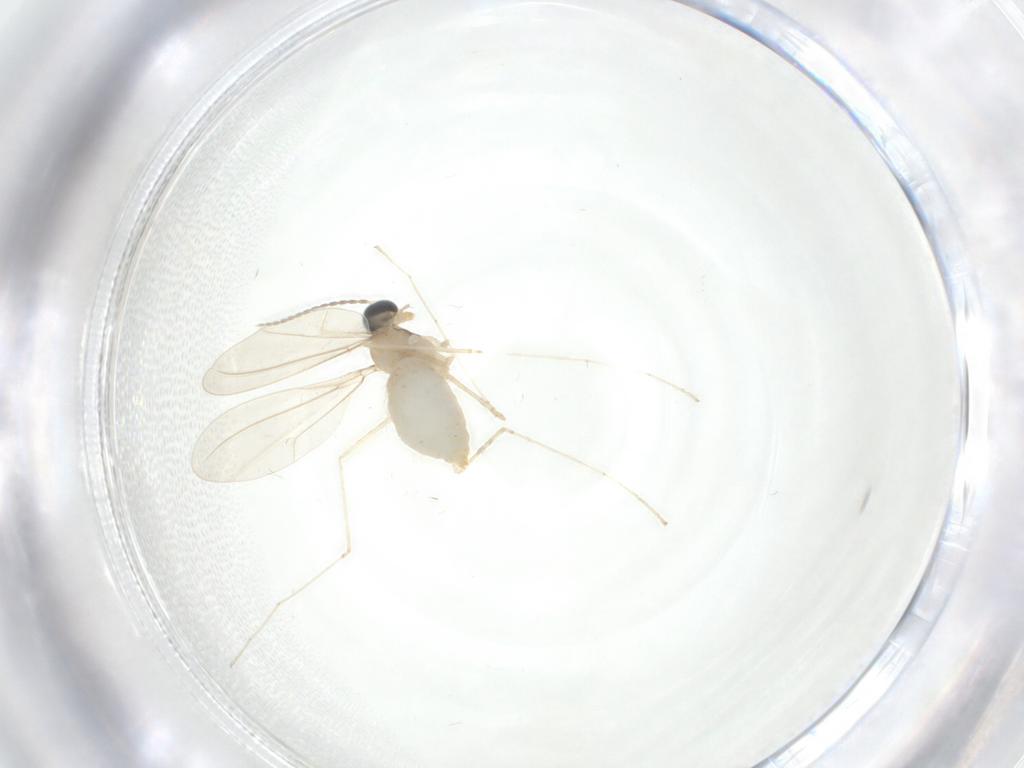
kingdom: Animalia
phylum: Arthropoda
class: Insecta
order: Diptera
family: Cecidomyiidae
